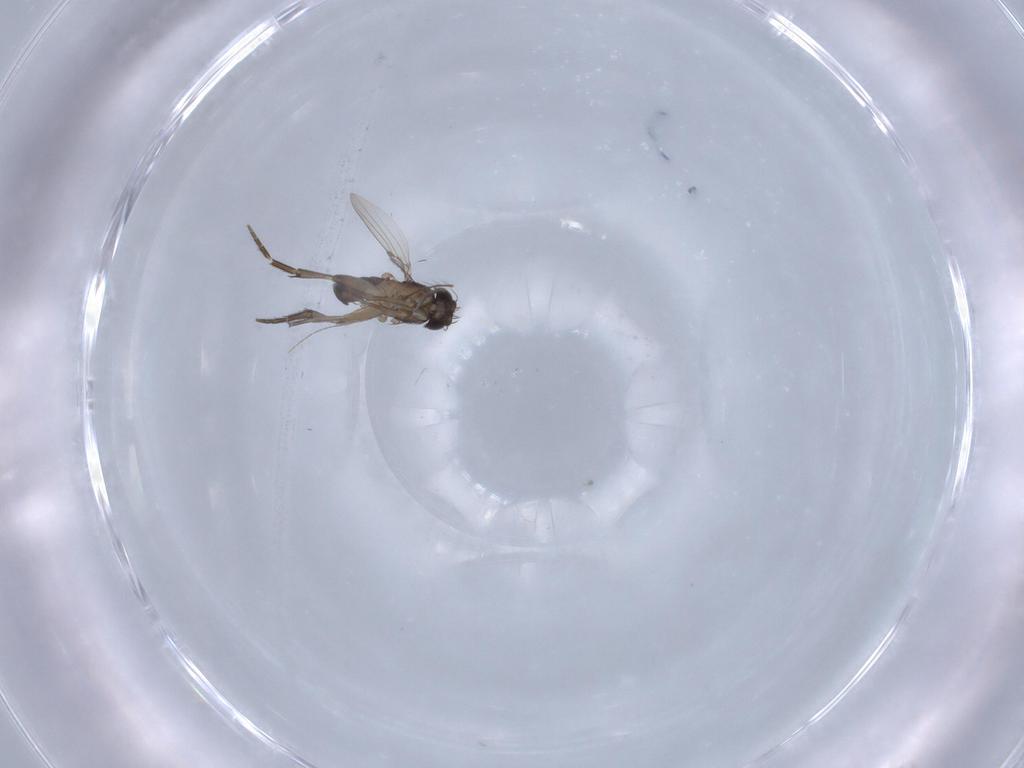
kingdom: Animalia
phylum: Arthropoda
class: Insecta
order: Diptera
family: Phoridae
